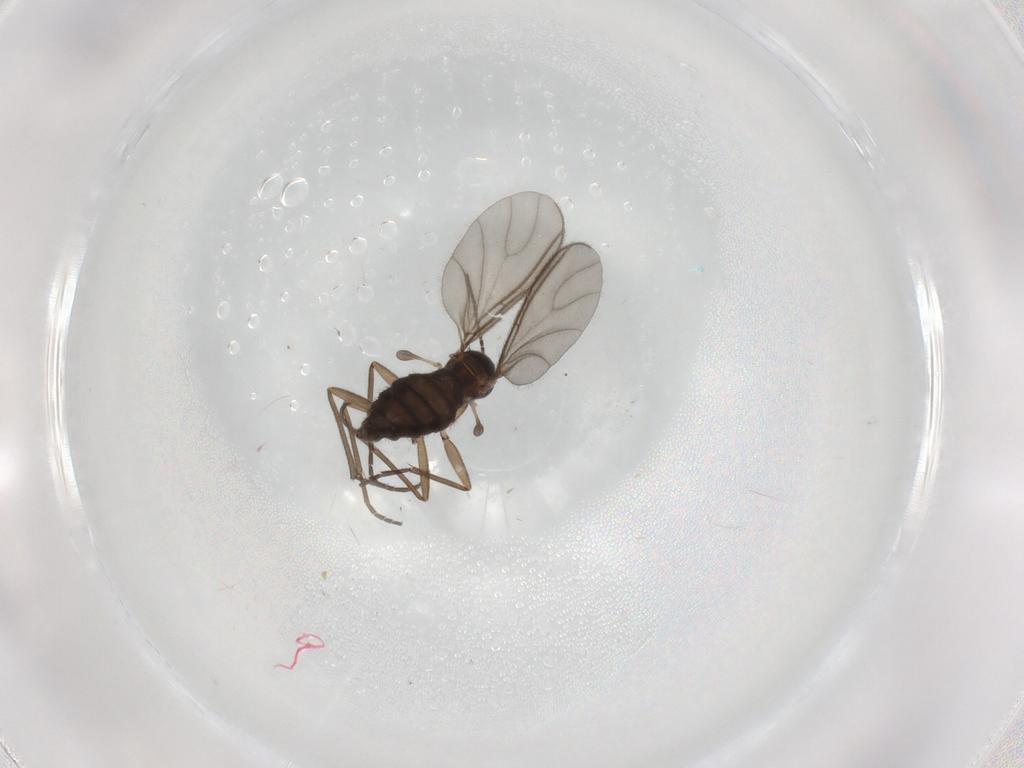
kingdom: Animalia
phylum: Arthropoda
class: Insecta
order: Diptera
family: Sciaridae
